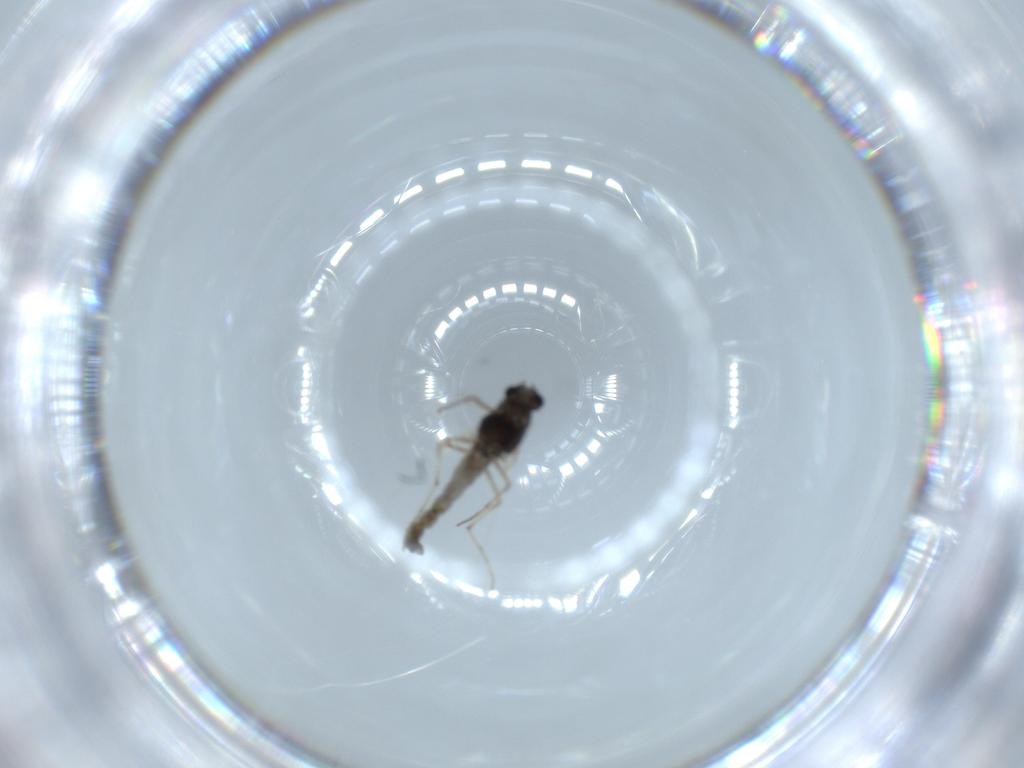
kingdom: Animalia
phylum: Arthropoda
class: Insecta
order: Diptera
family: Chironomidae
